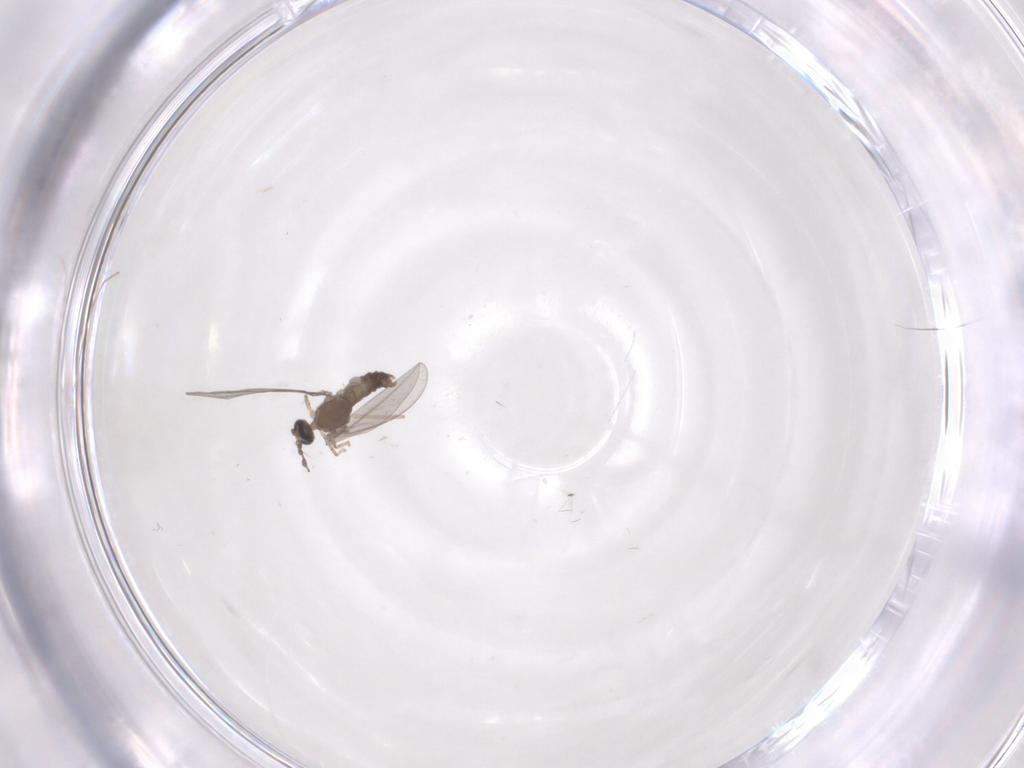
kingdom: Animalia
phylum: Arthropoda
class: Insecta
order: Diptera
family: Cecidomyiidae
